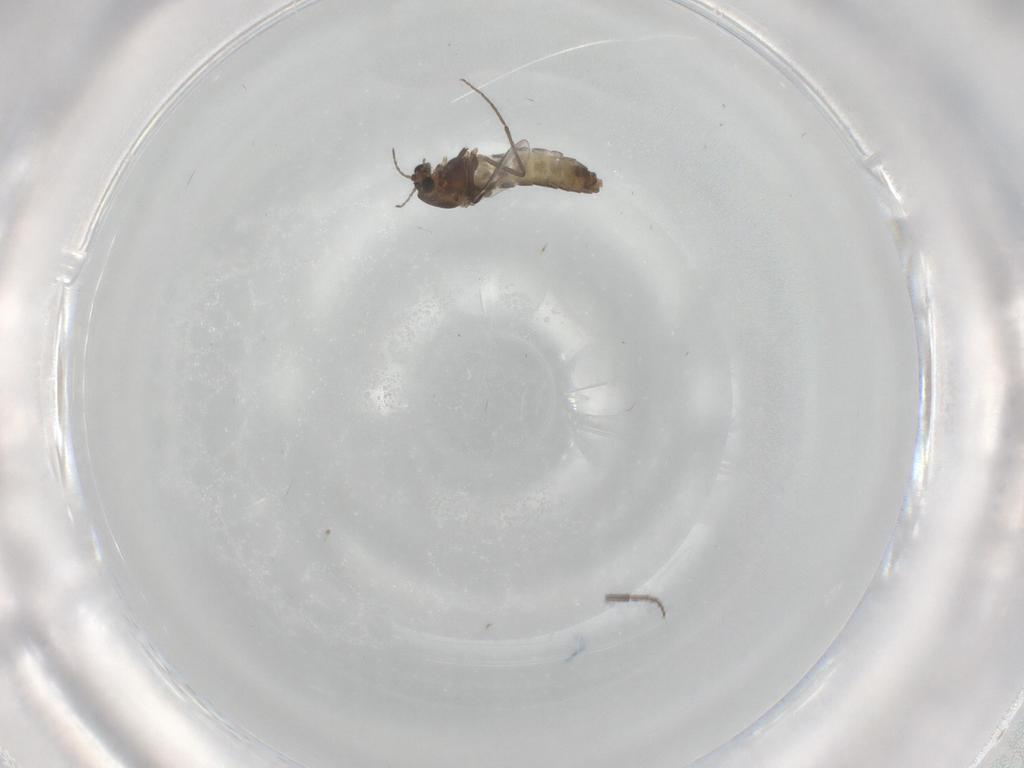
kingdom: Animalia
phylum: Arthropoda
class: Insecta
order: Diptera
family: Chironomidae
